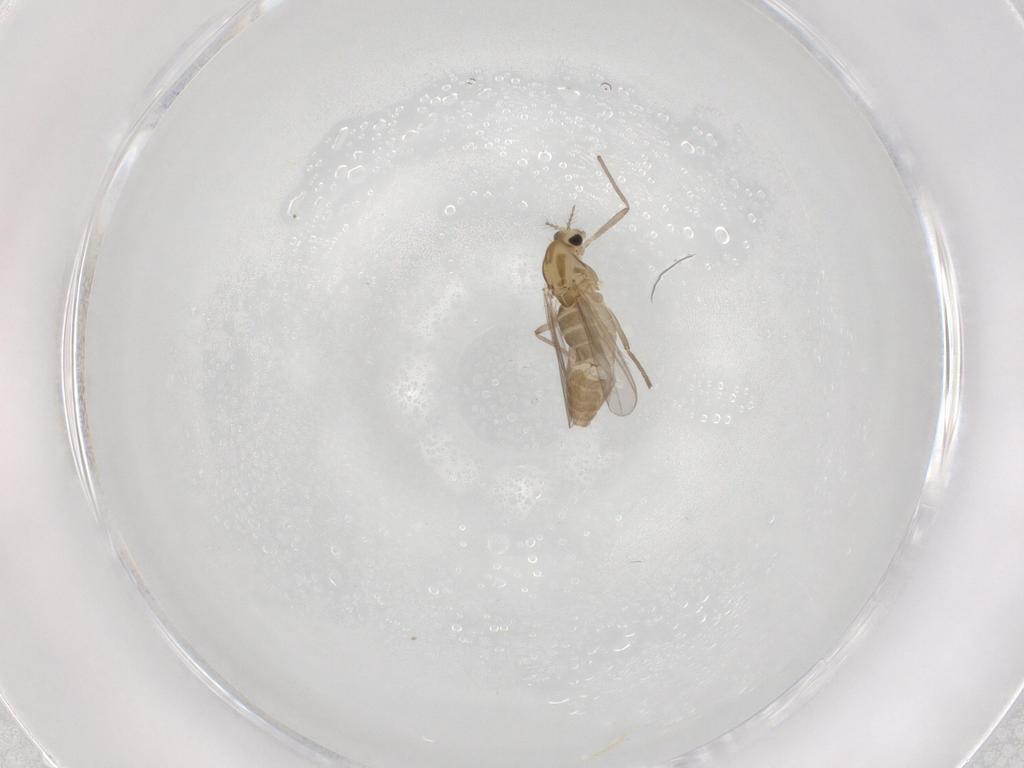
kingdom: Animalia
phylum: Arthropoda
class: Insecta
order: Diptera
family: Chironomidae
